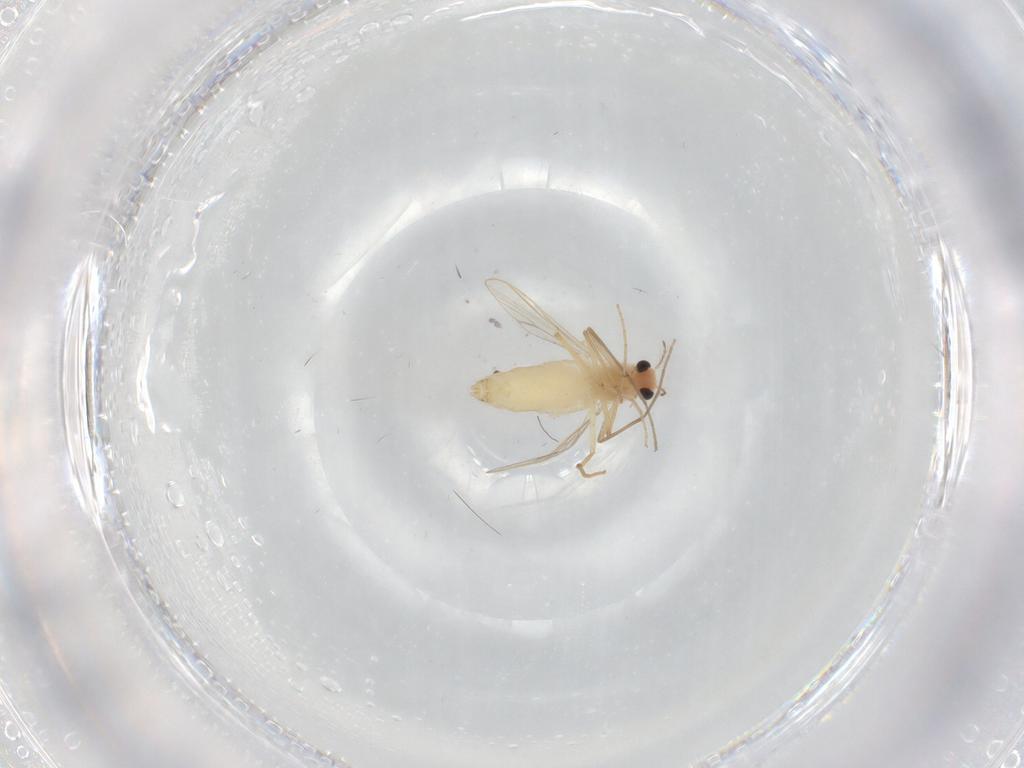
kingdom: Animalia
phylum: Arthropoda
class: Insecta
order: Diptera
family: Chironomidae
